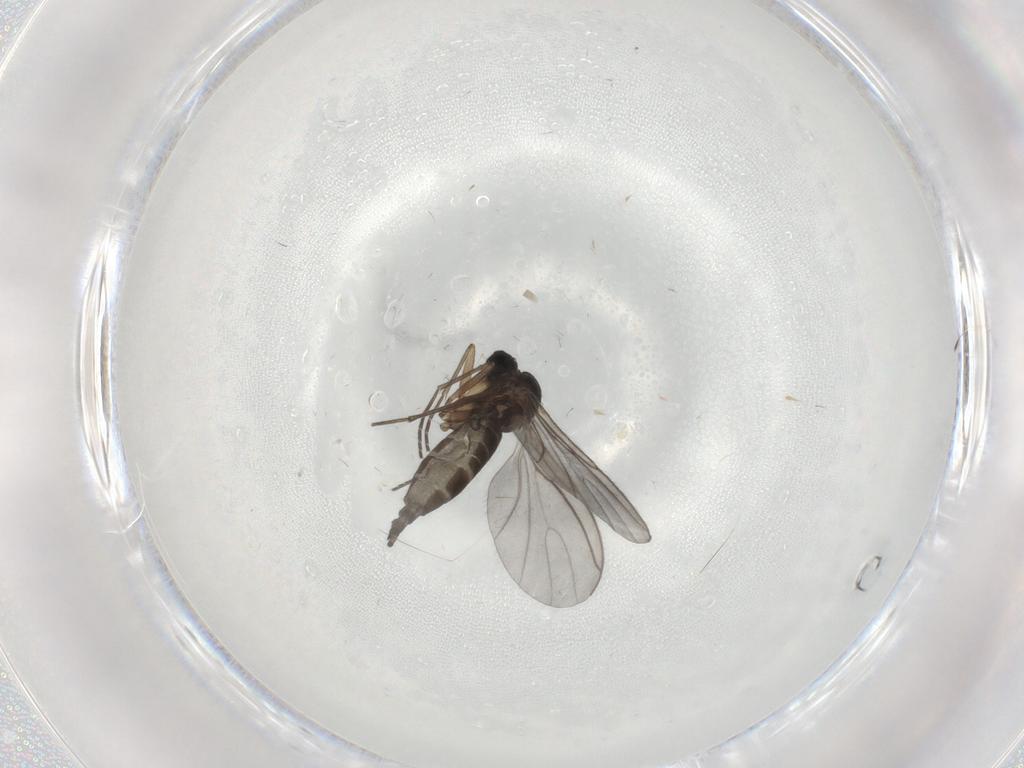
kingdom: Animalia
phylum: Arthropoda
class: Insecta
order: Diptera
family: Sciaridae
